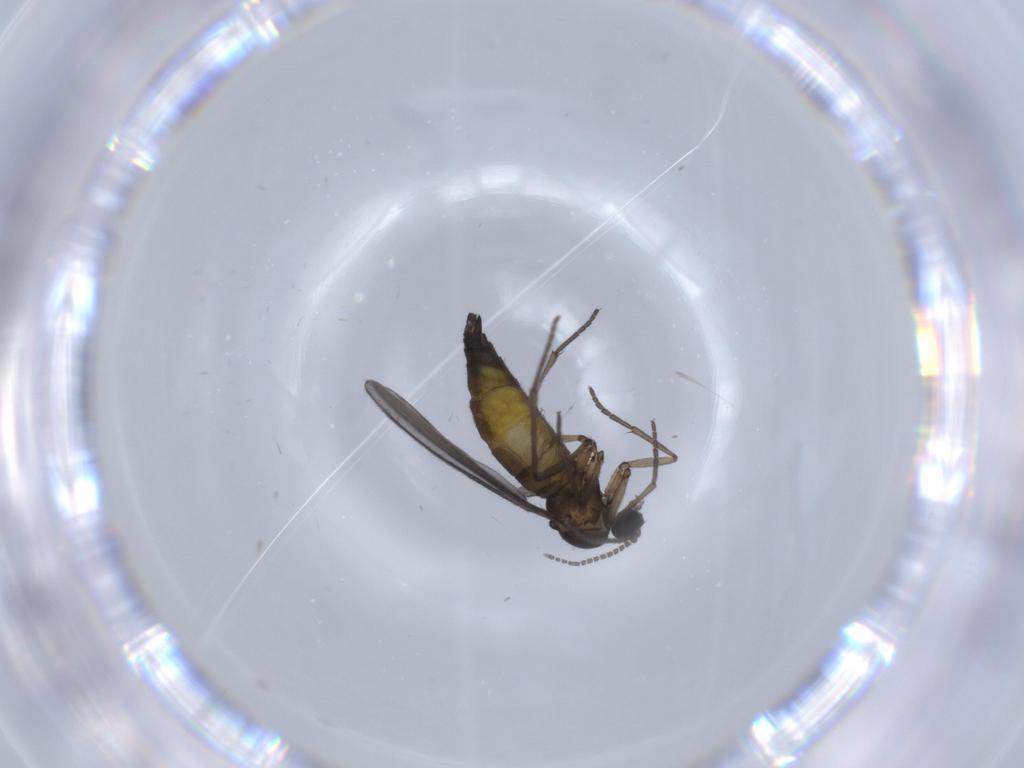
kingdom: Animalia
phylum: Arthropoda
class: Insecta
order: Diptera
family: Sciaridae
